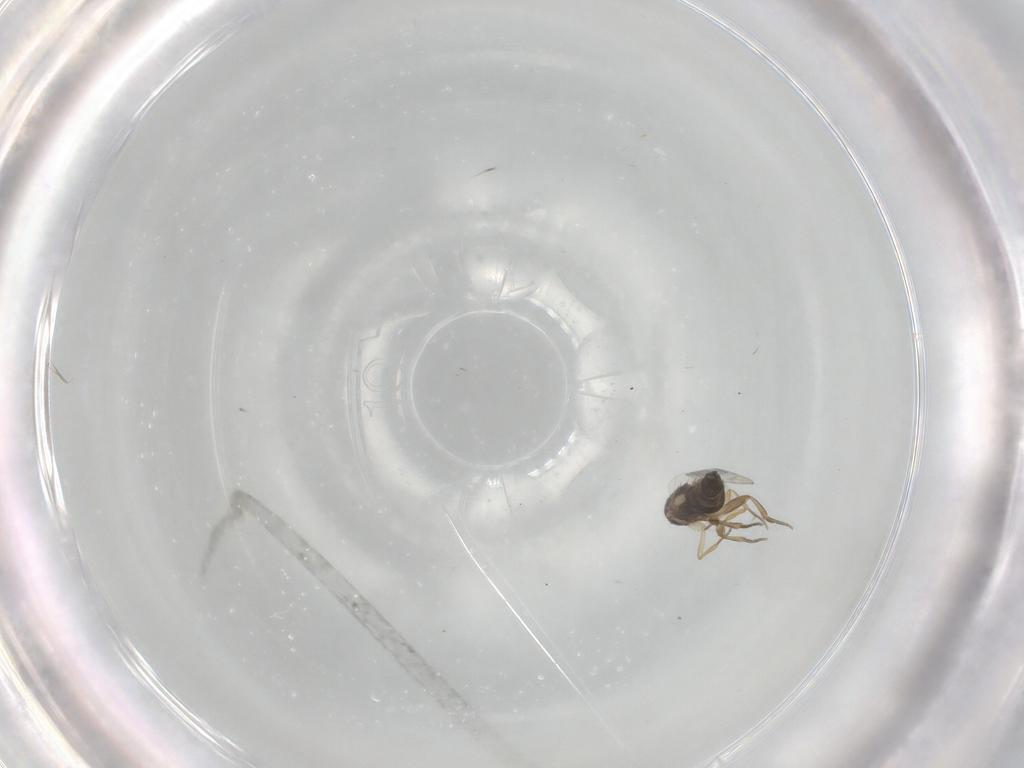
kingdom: Animalia
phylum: Arthropoda
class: Insecta
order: Diptera
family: Phoridae
